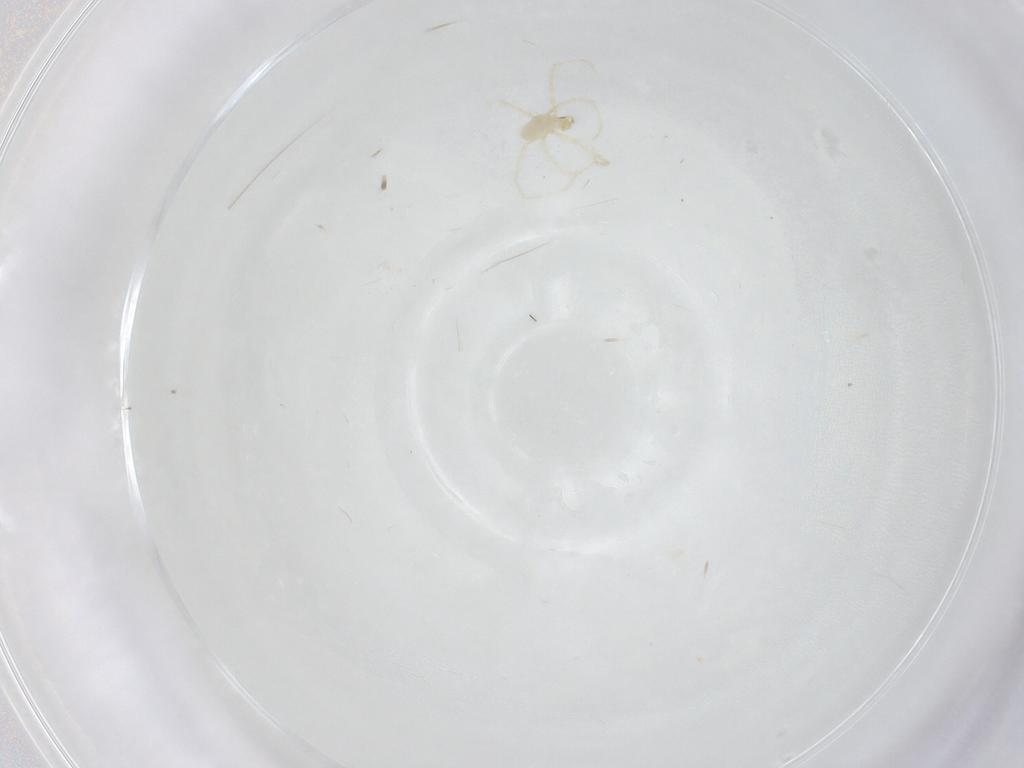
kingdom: Animalia
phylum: Arthropoda
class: Arachnida
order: Trombidiformes
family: Erythraeidae
